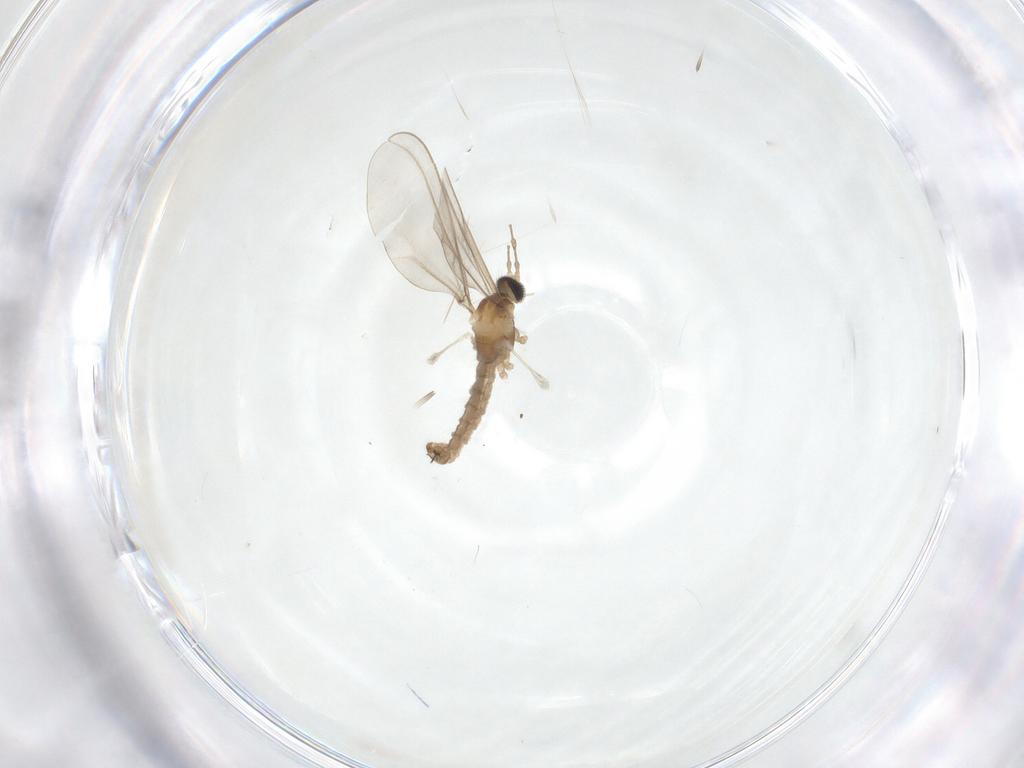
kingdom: Animalia
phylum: Arthropoda
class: Insecta
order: Diptera
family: Cecidomyiidae
